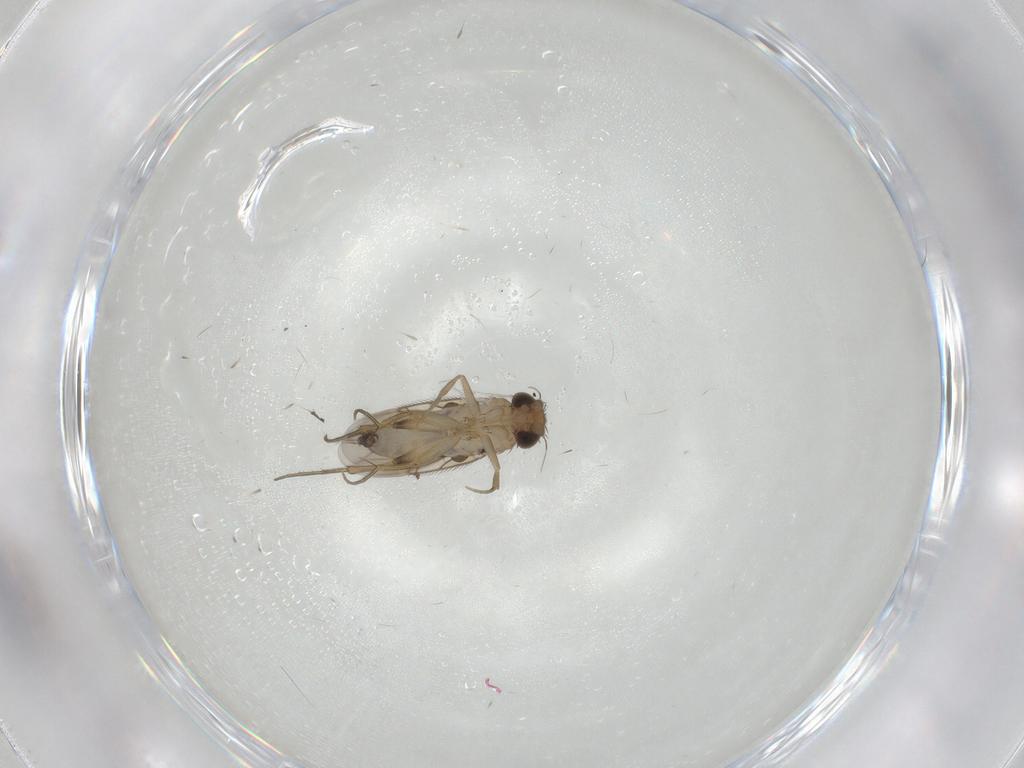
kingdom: Animalia
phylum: Arthropoda
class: Insecta
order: Diptera
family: Phoridae
